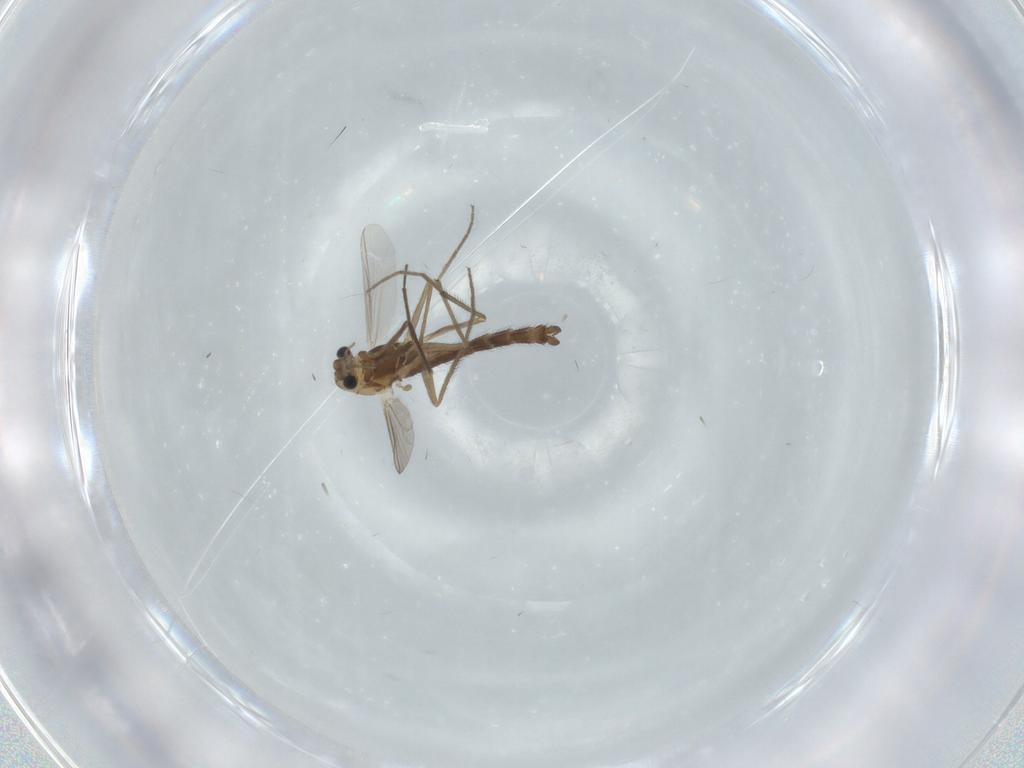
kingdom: Animalia
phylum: Arthropoda
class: Insecta
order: Diptera
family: Chironomidae
